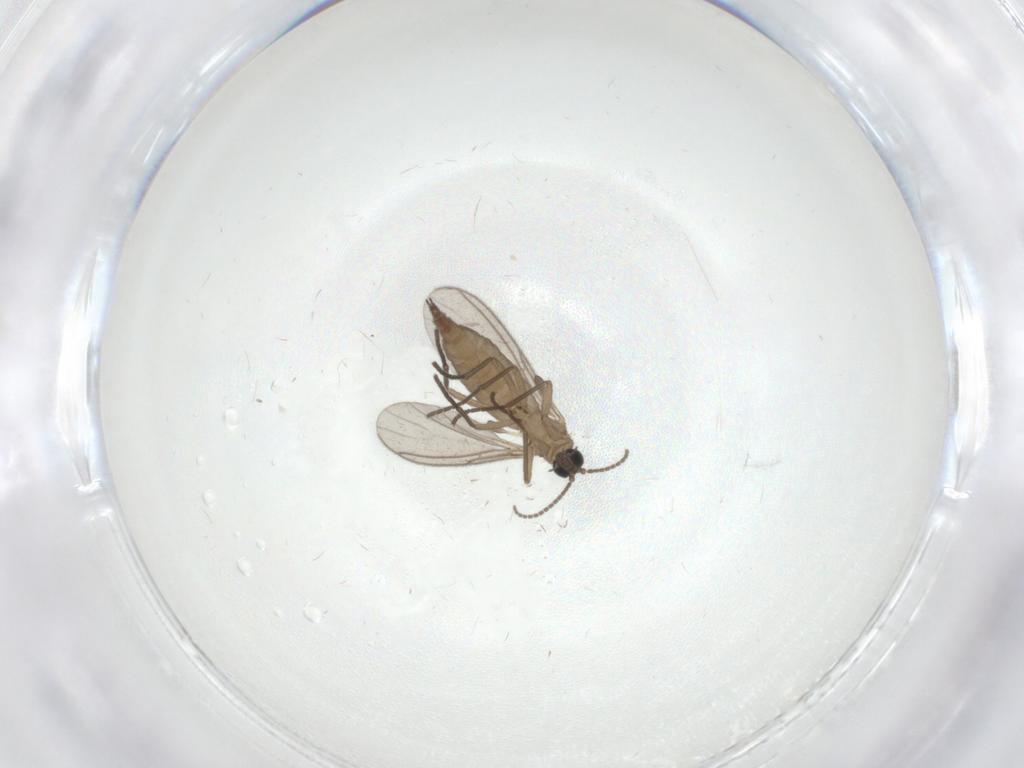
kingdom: Animalia
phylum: Arthropoda
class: Insecta
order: Diptera
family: Sciaridae
